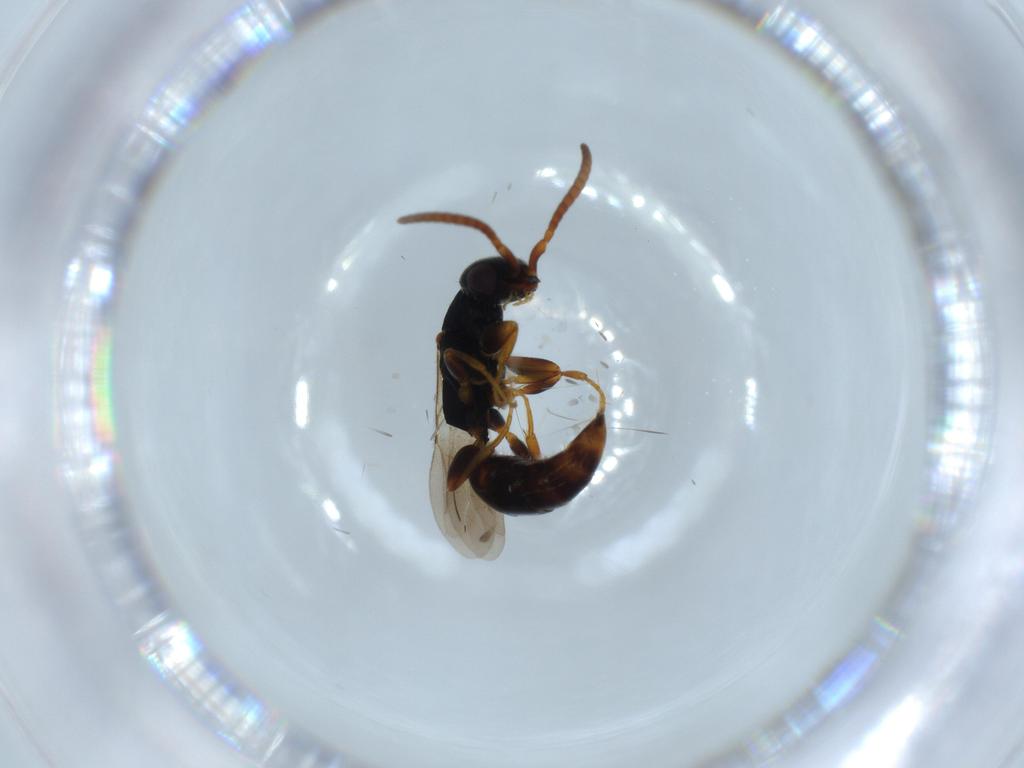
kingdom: Animalia
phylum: Arthropoda
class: Insecta
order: Hymenoptera
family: Bethylidae
